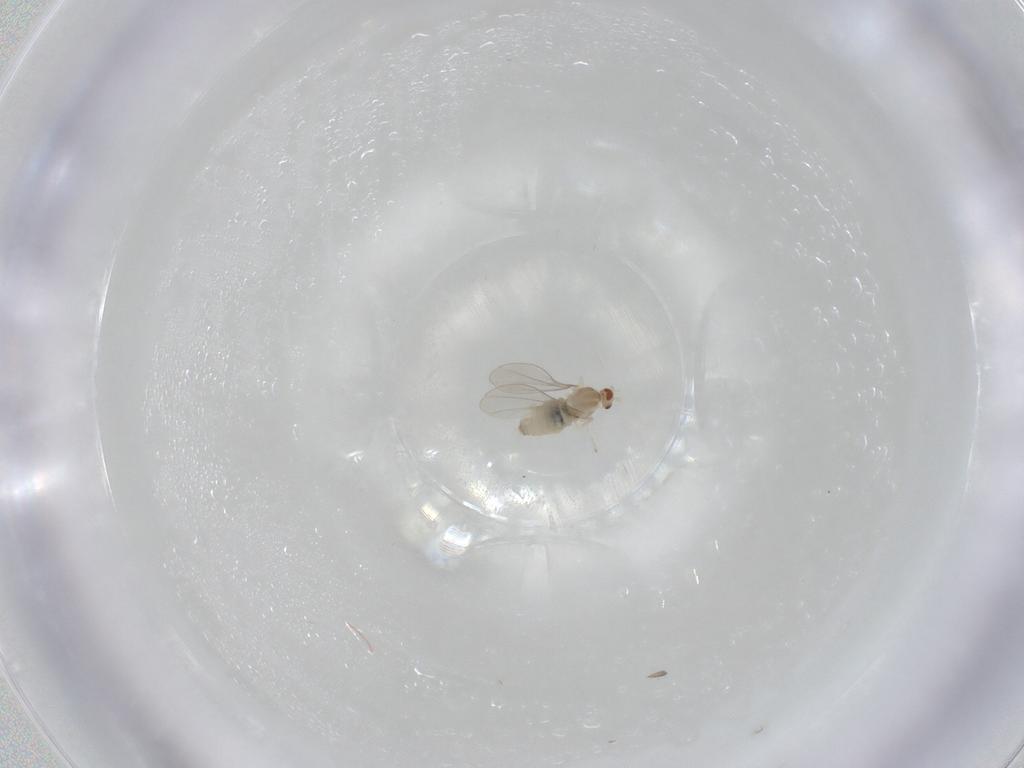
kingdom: Animalia
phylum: Arthropoda
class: Insecta
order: Diptera
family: Cecidomyiidae
